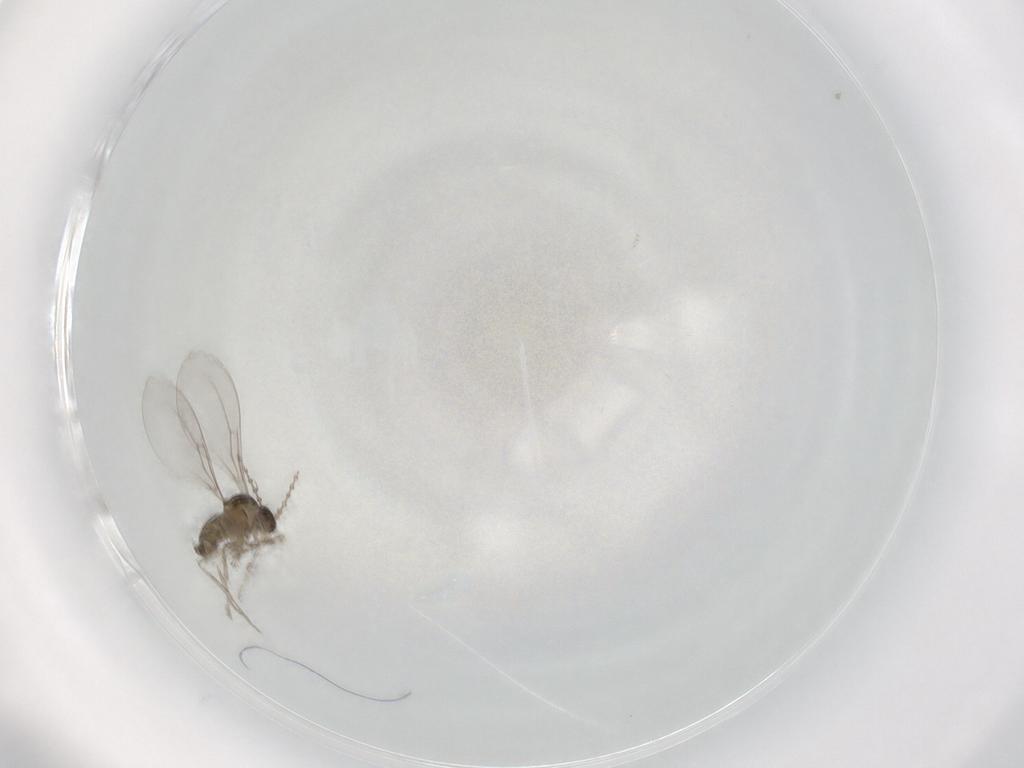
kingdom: Animalia
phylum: Arthropoda
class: Insecta
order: Diptera
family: Cecidomyiidae
